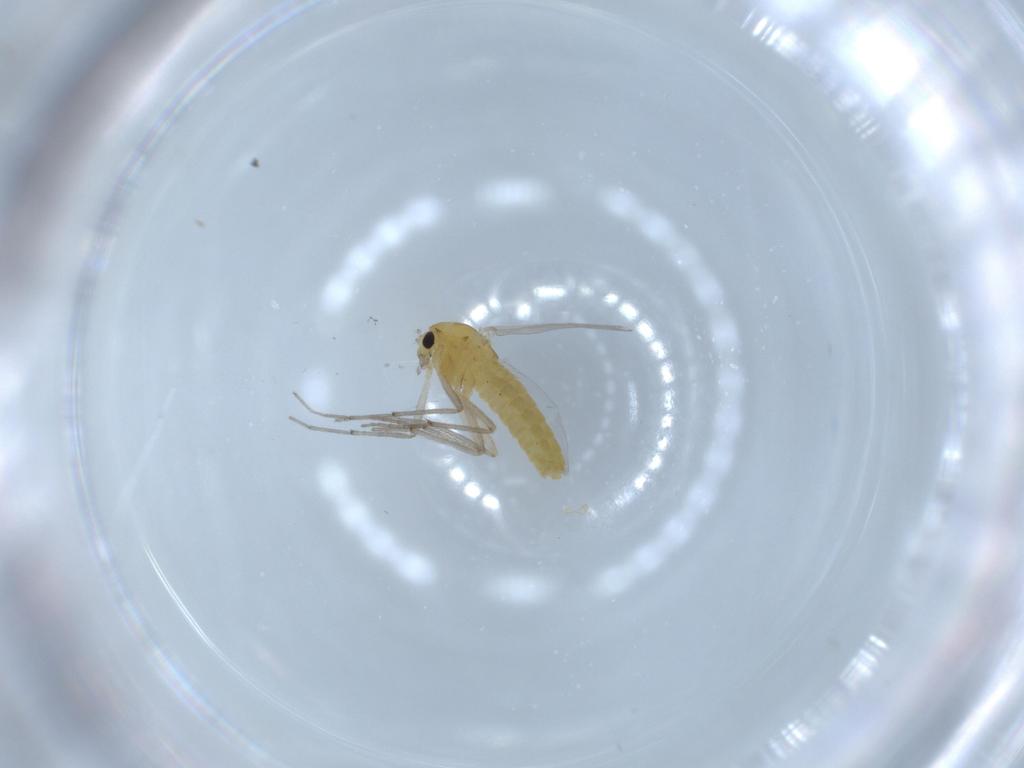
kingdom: Animalia
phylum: Arthropoda
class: Insecta
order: Diptera
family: Chironomidae
